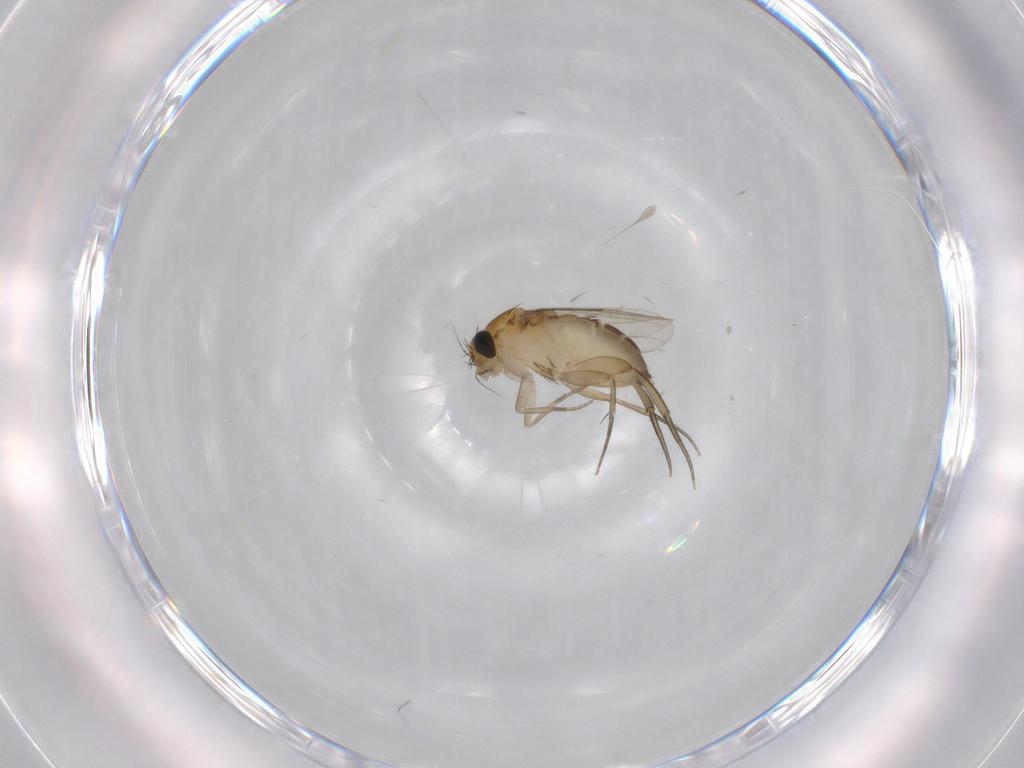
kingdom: Animalia
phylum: Arthropoda
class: Insecta
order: Diptera
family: Phoridae
